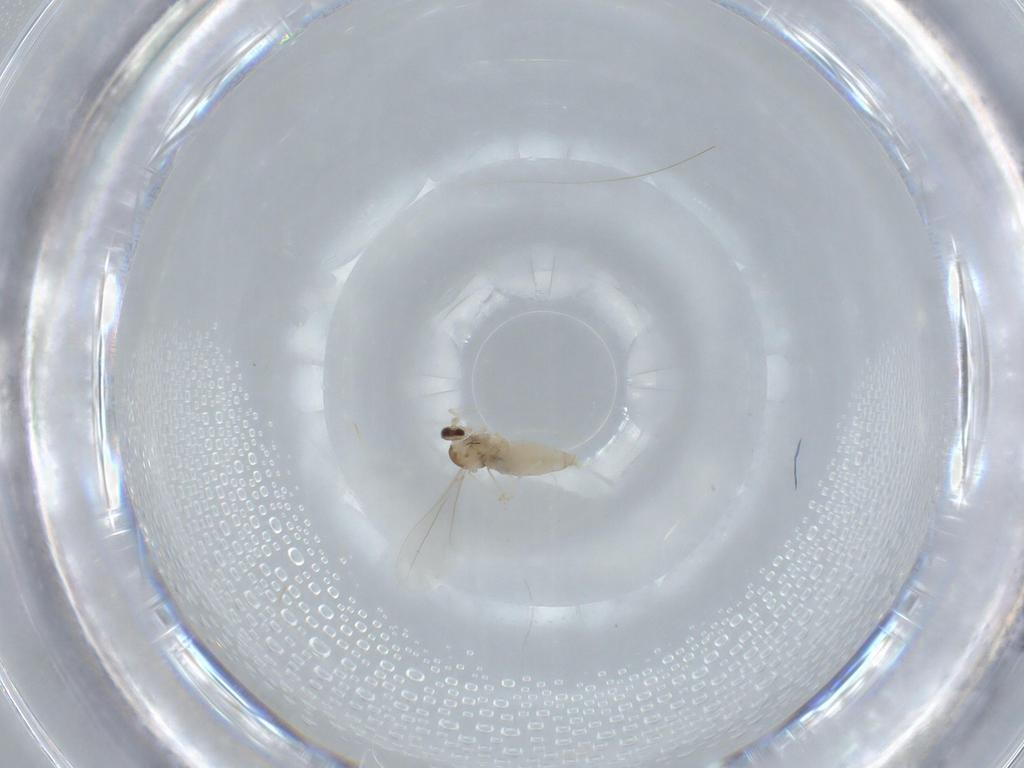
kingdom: Animalia
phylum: Arthropoda
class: Insecta
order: Diptera
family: Cecidomyiidae
